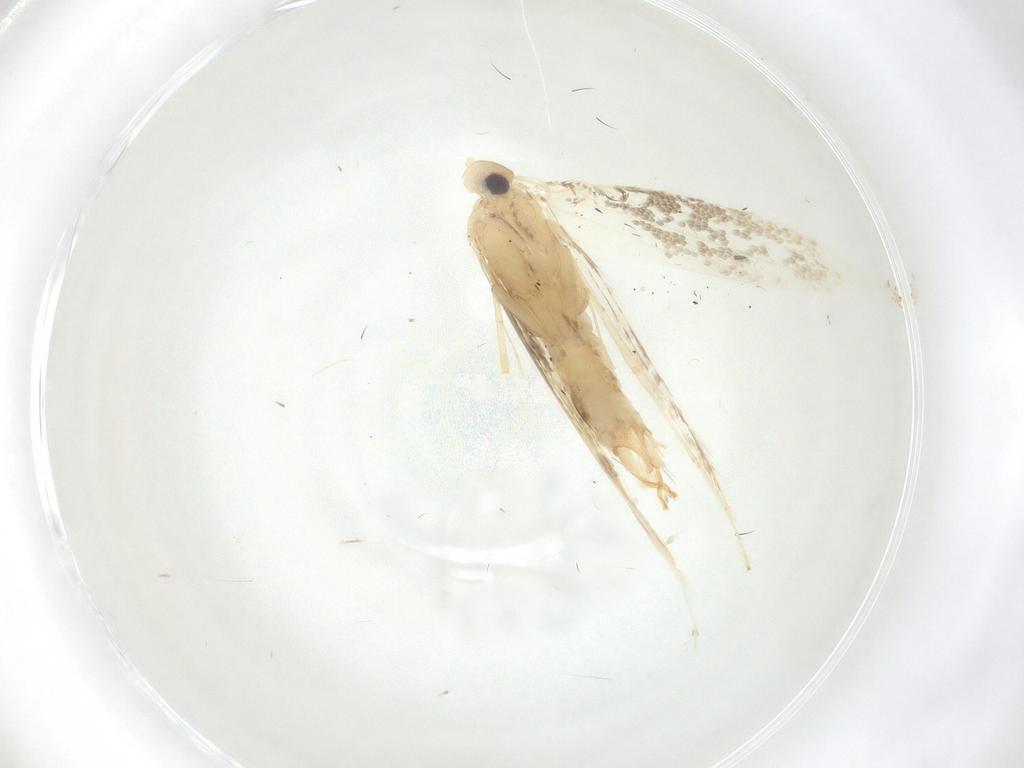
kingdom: Animalia
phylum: Arthropoda
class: Insecta
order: Lepidoptera
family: Gracillariidae
